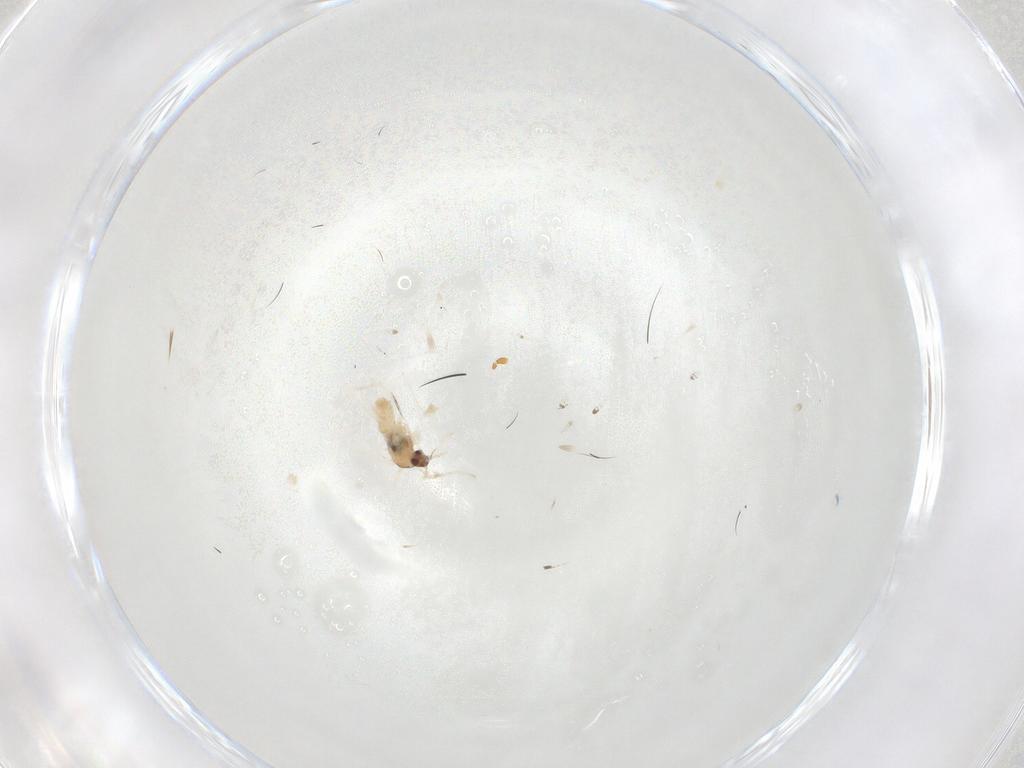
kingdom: Animalia
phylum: Arthropoda
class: Insecta
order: Diptera
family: Cecidomyiidae
